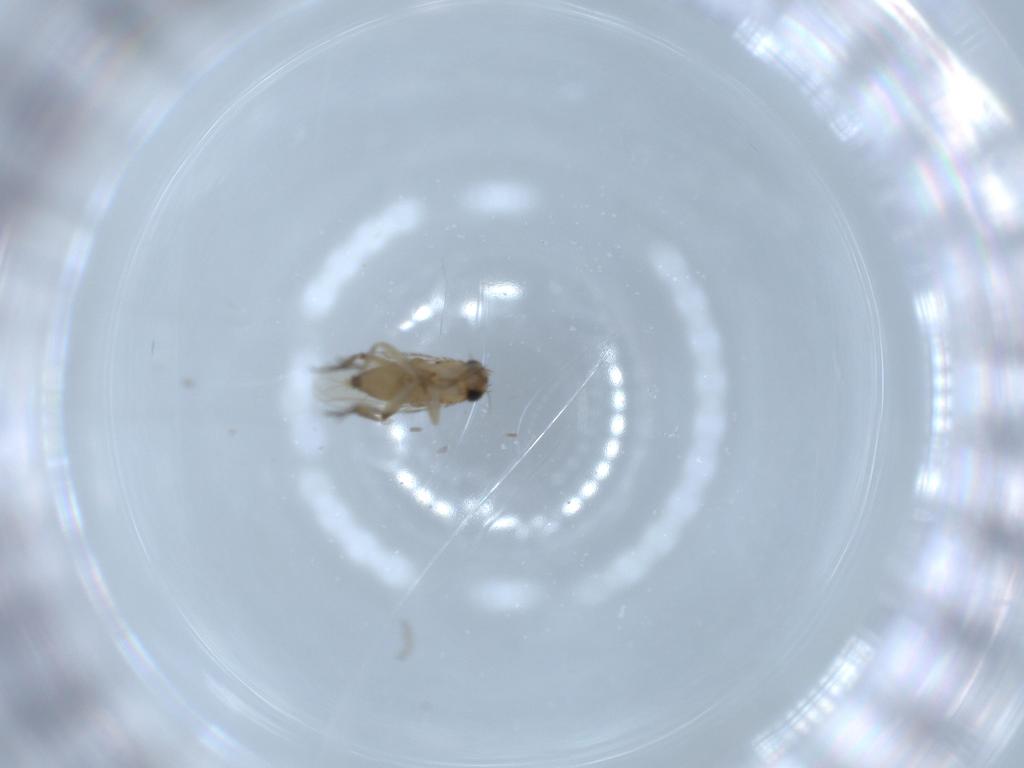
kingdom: Animalia
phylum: Arthropoda
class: Insecta
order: Diptera
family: Phoridae
